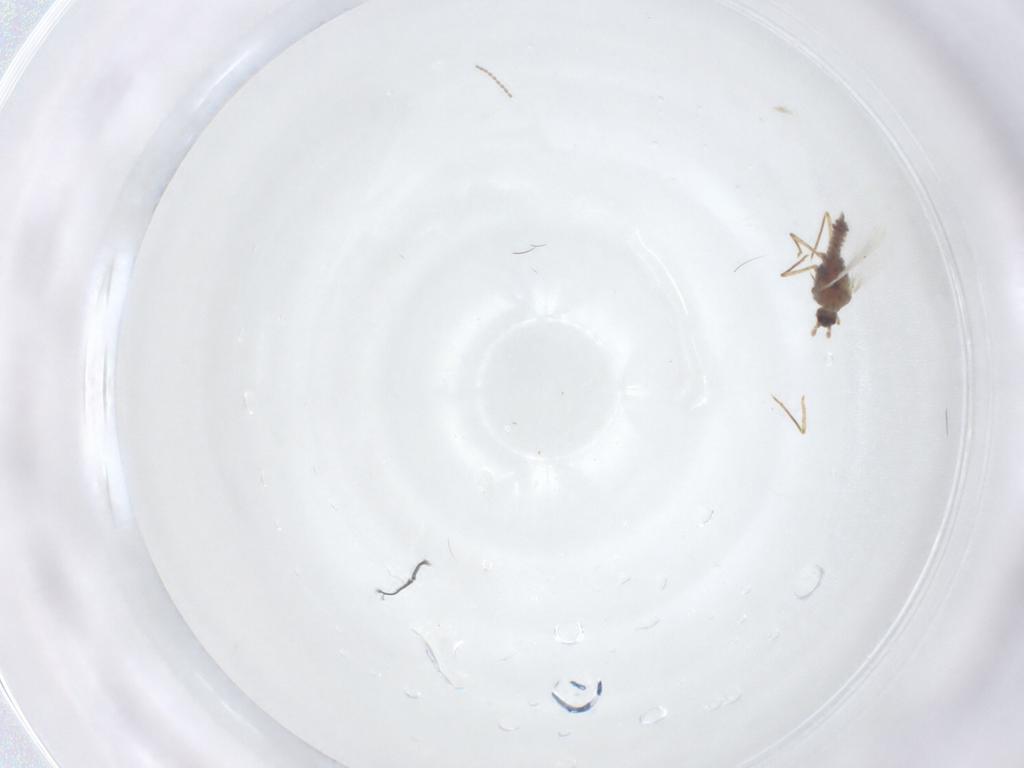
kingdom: Animalia
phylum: Arthropoda
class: Insecta
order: Diptera
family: Cecidomyiidae
